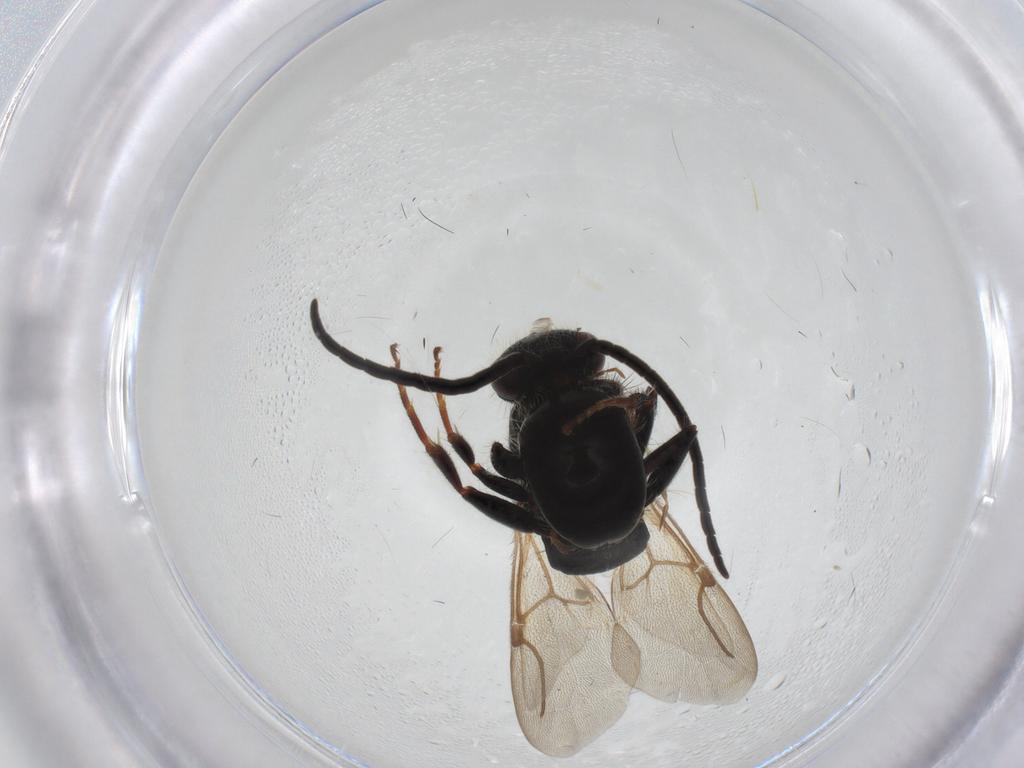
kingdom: Animalia
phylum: Arthropoda
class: Insecta
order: Hymenoptera
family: Bethylidae
